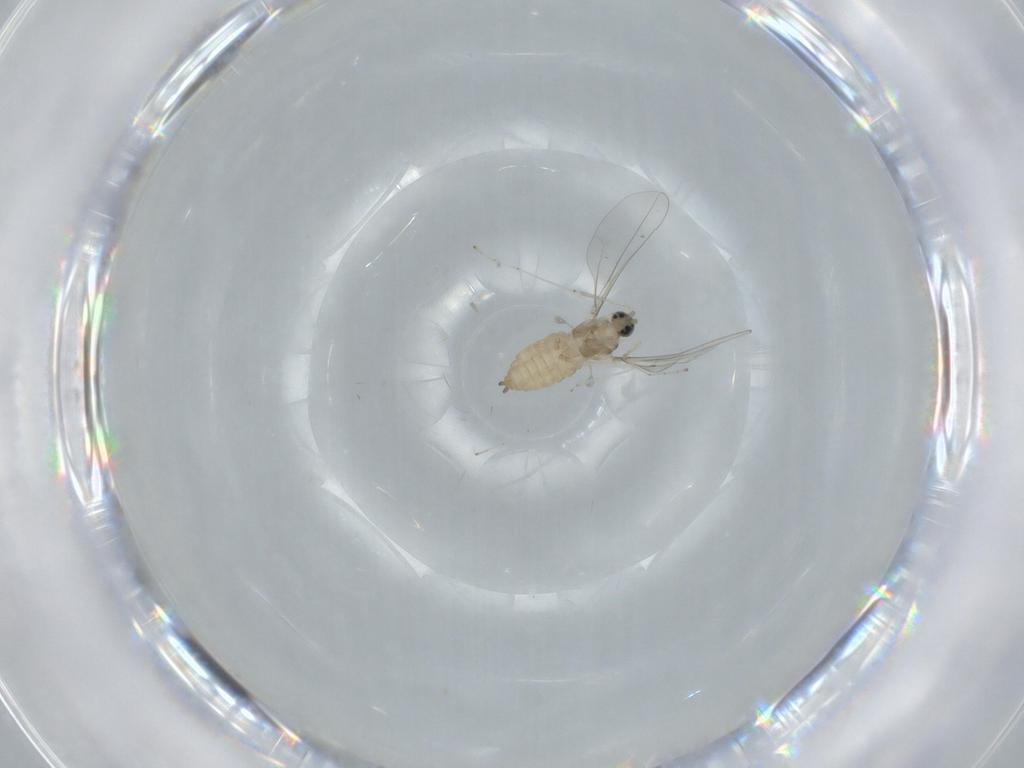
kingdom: Animalia
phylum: Arthropoda
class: Insecta
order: Diptera
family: Cecidomyiidae
